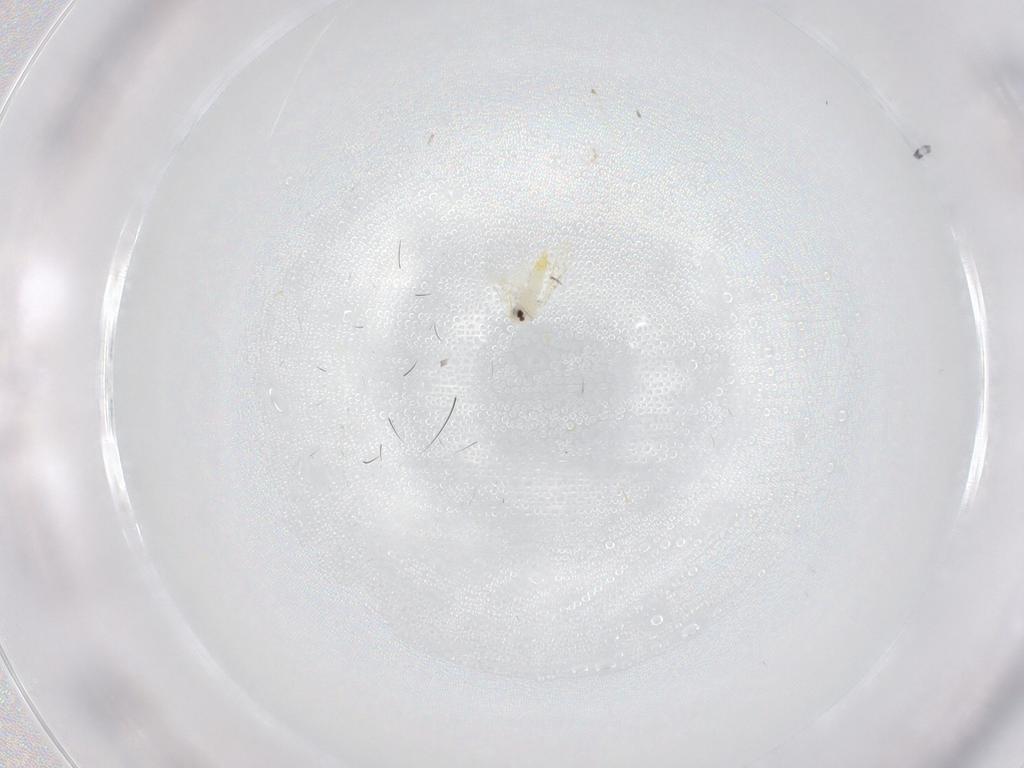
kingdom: Animalia
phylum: Arthropoda
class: Insecta
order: Hemiptera
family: Aleyrodidae
